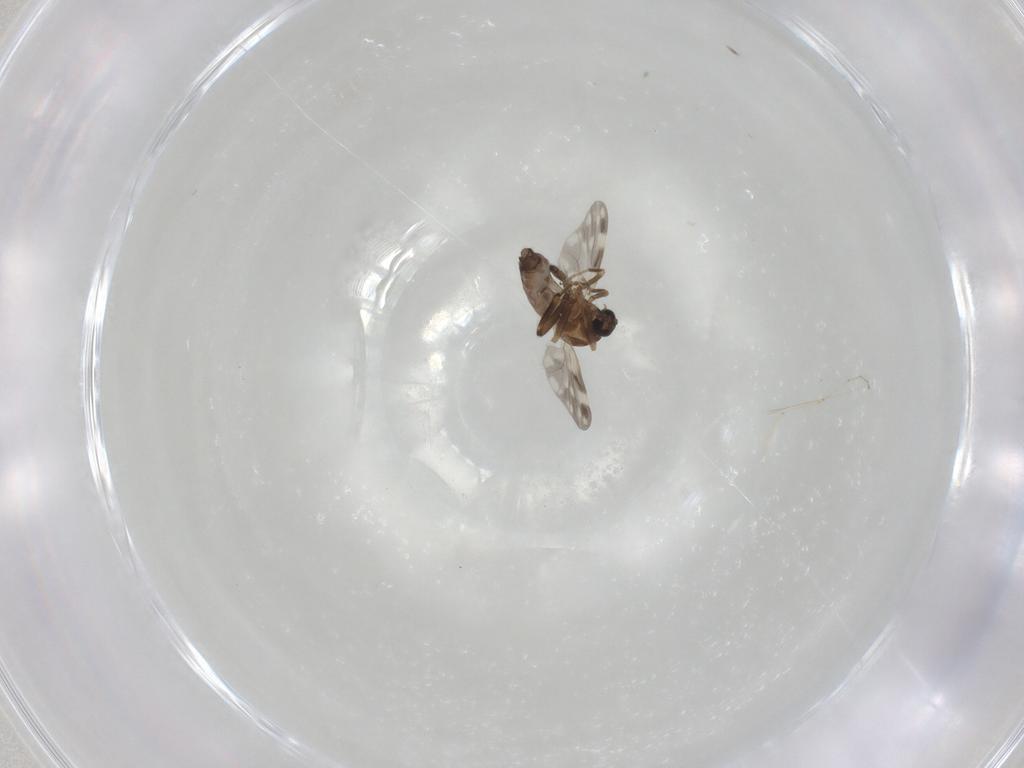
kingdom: Animalia
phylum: Arthropoda
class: Insecta
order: Diptera
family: Ceratopogonidae
